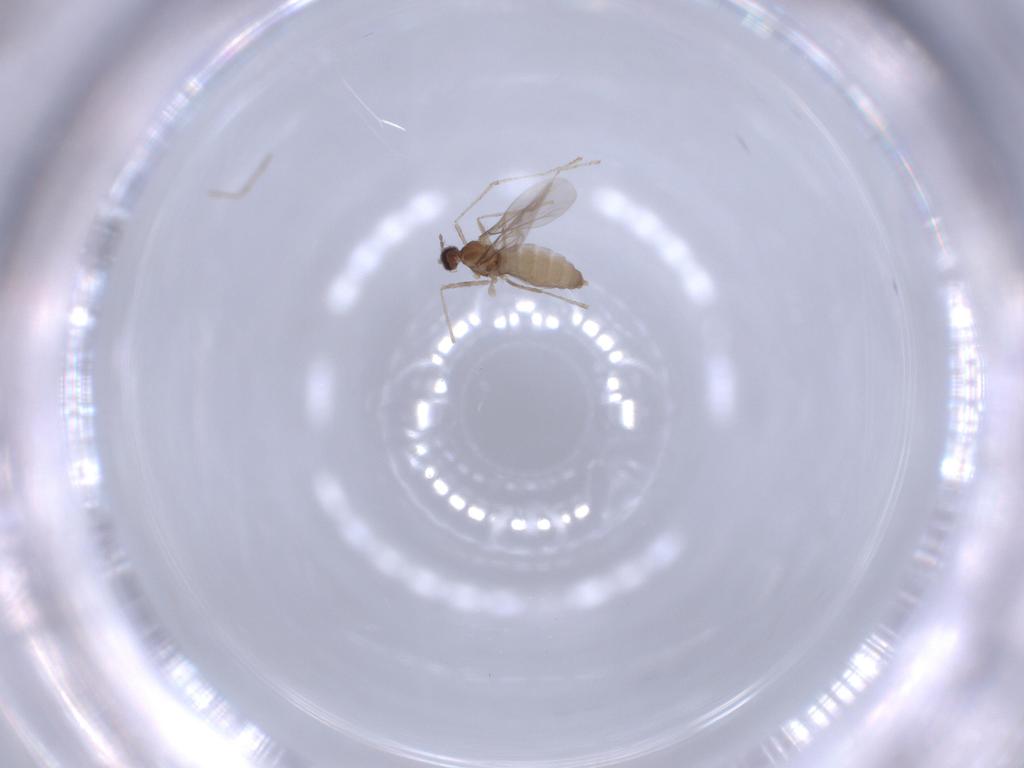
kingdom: Animalia
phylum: Arthropoda
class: Insecta
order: Diptera
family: Cecidomyiidae
